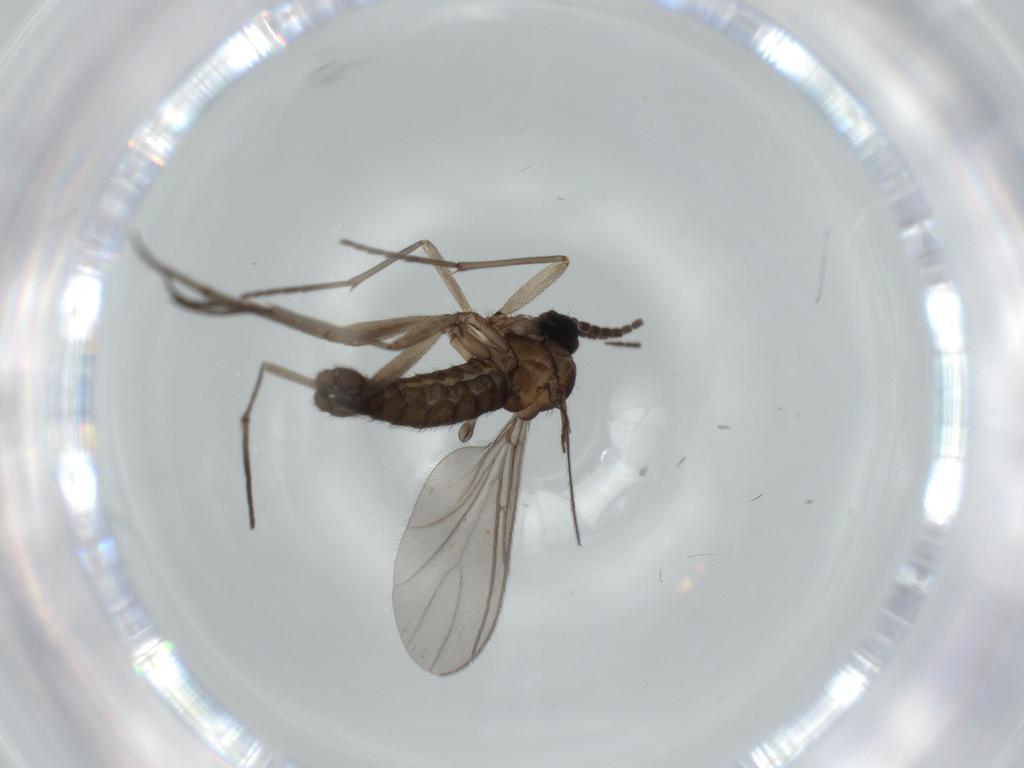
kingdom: Animalia
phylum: Arthropoda
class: Insecta
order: Diptera
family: Sciaridae
